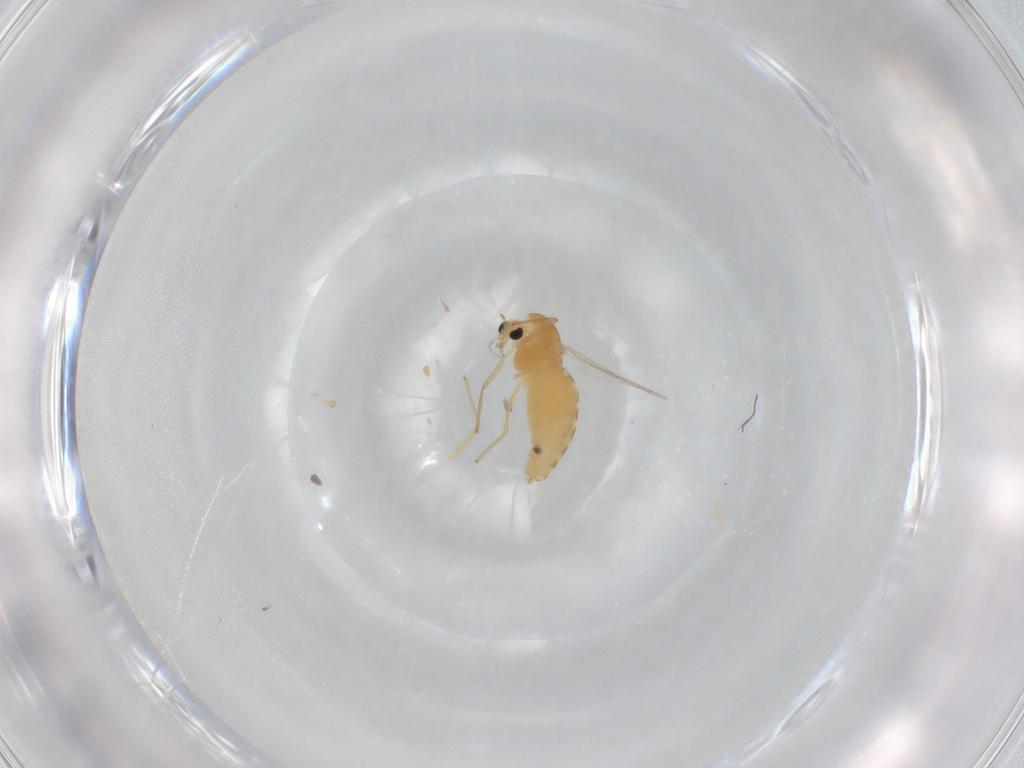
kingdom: Animalia
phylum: Arthropoda
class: Insecta
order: Diptera
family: Chironomidae
